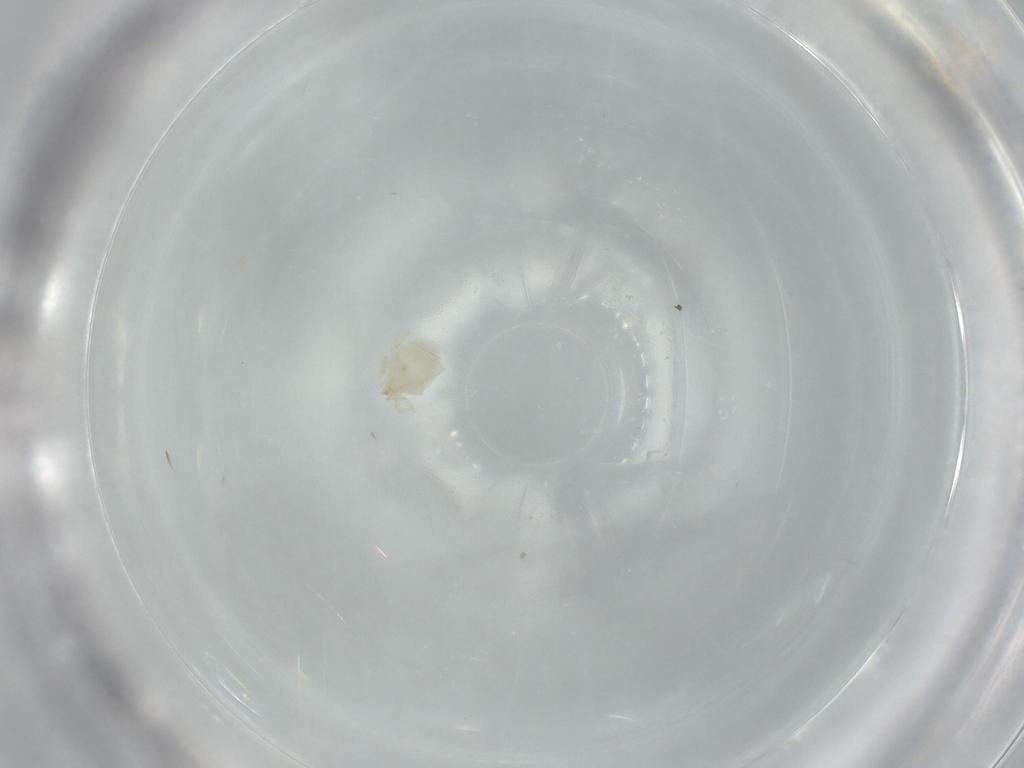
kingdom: Animalia
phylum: Arthropoda
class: Arachnida
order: Trombidiformes
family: Erythraeidae
